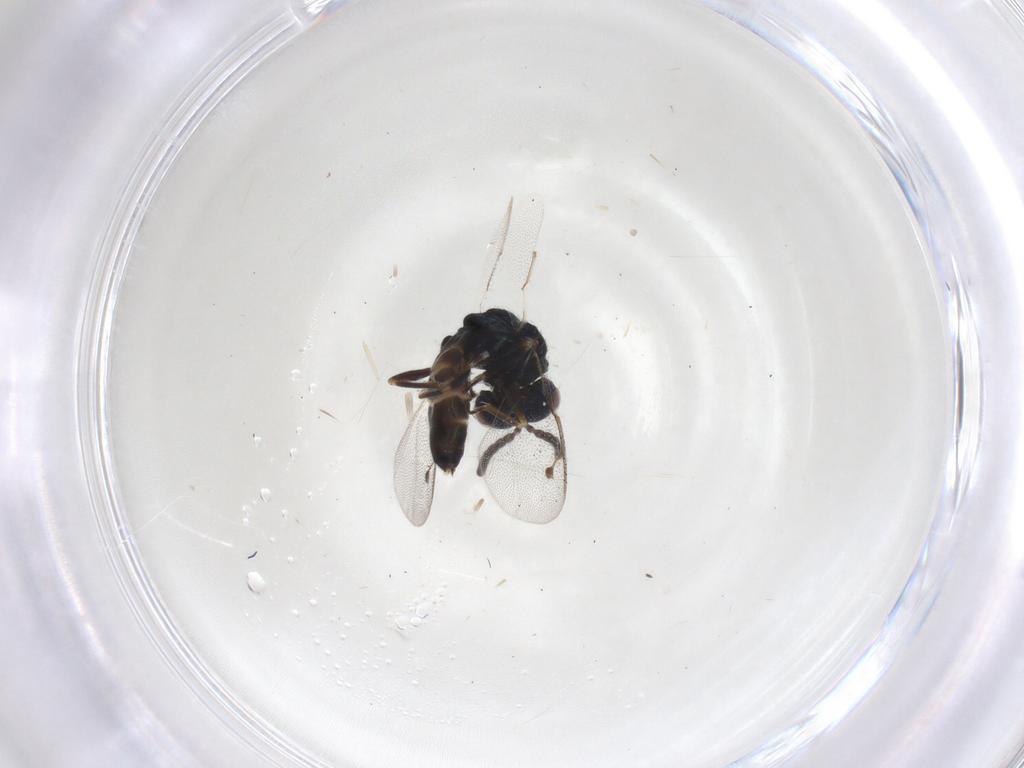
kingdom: Animalia
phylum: Arthropoda
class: Insecta
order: Hymenoptera
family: Pteromalidae
